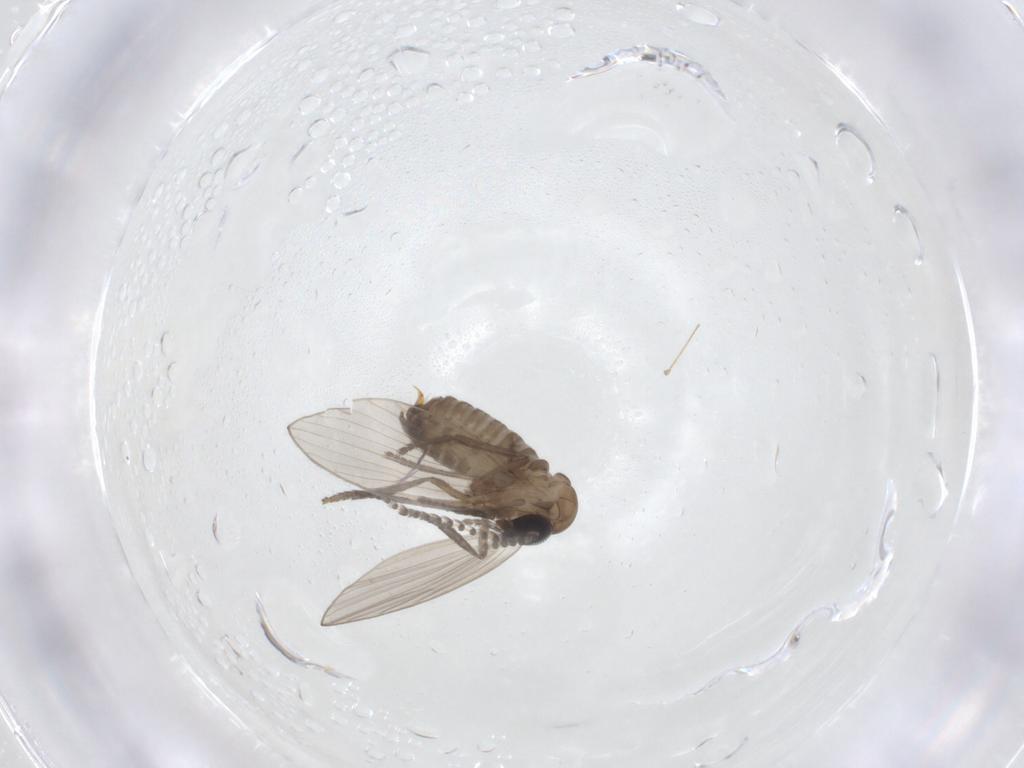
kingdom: Animalia
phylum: Arthropoda
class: Insecta
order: Diptera
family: Psychodidae
